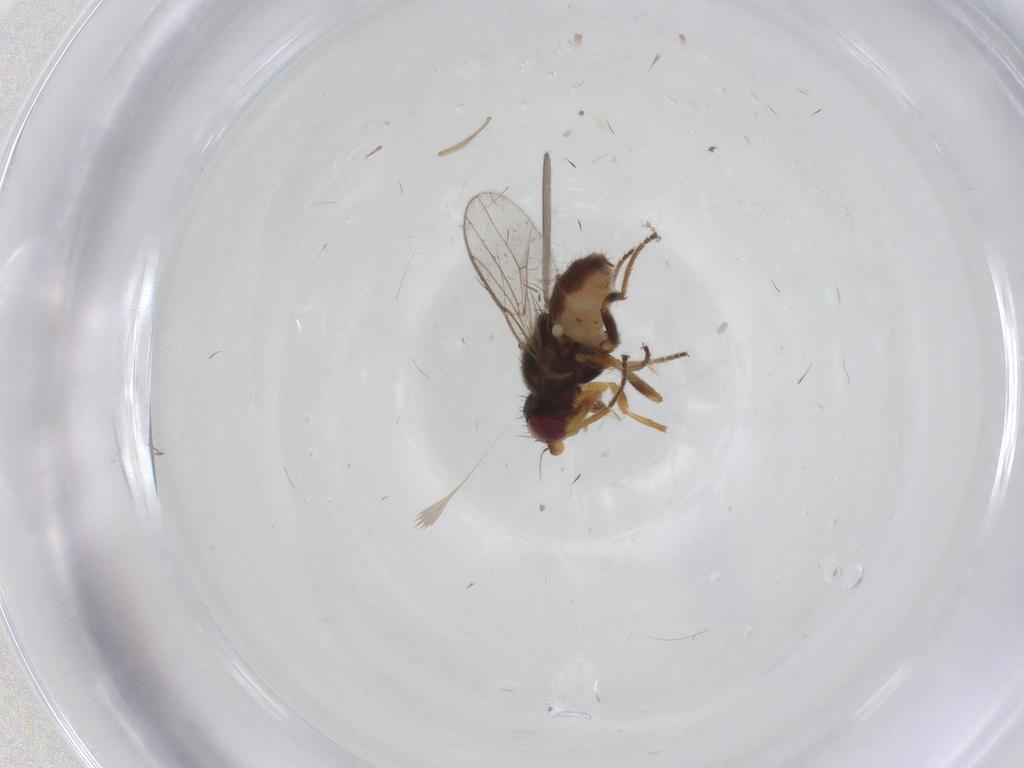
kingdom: Animalia
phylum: Arthropoda
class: Insecta
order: Diptera
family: Chloropidae
